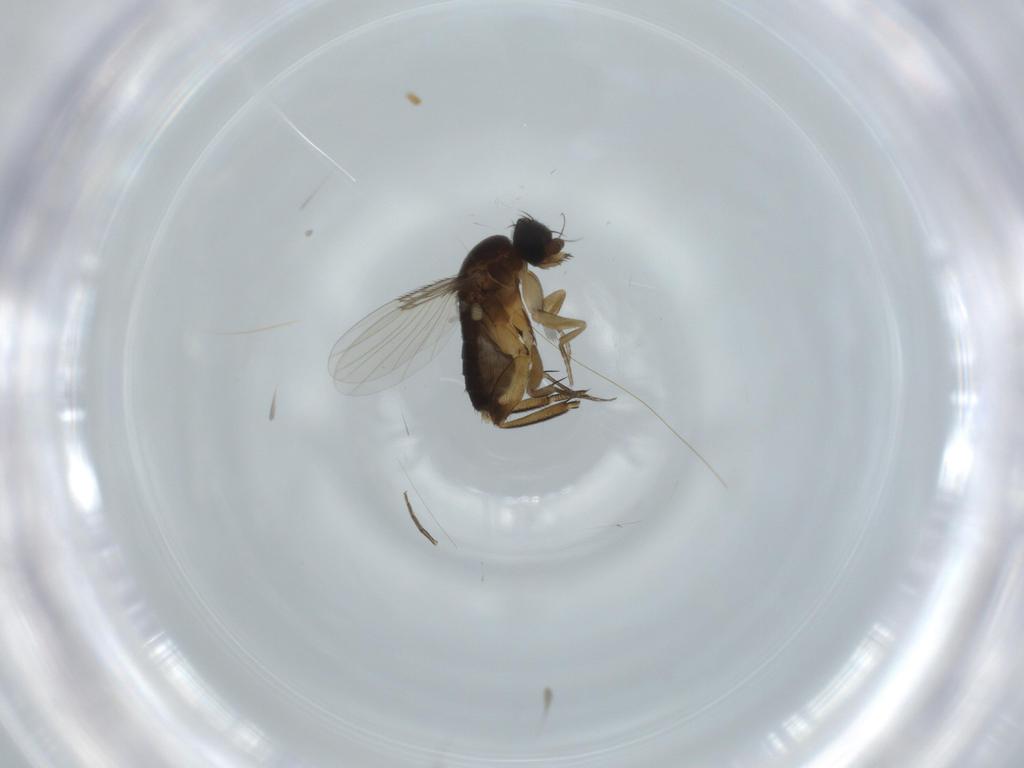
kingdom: Animalia
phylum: Arthropoda
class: Insecta
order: Diptera
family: Phoridae
